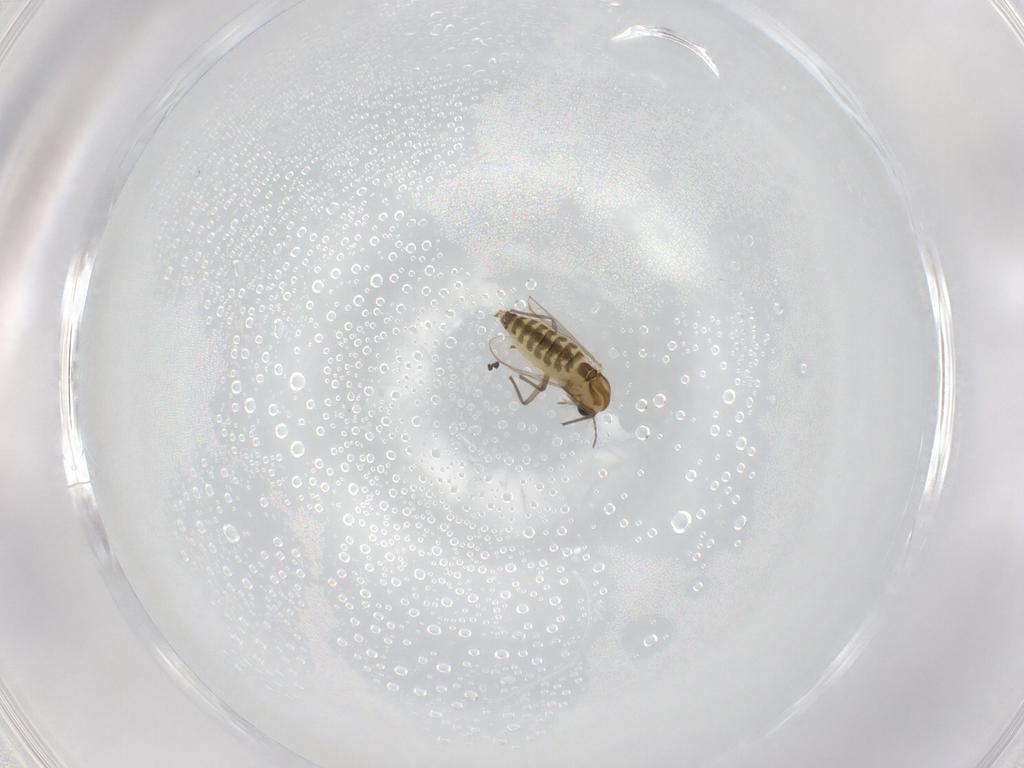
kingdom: Animalia
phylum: Arthropoda
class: Insecta
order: Diptera
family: Chironomidae
